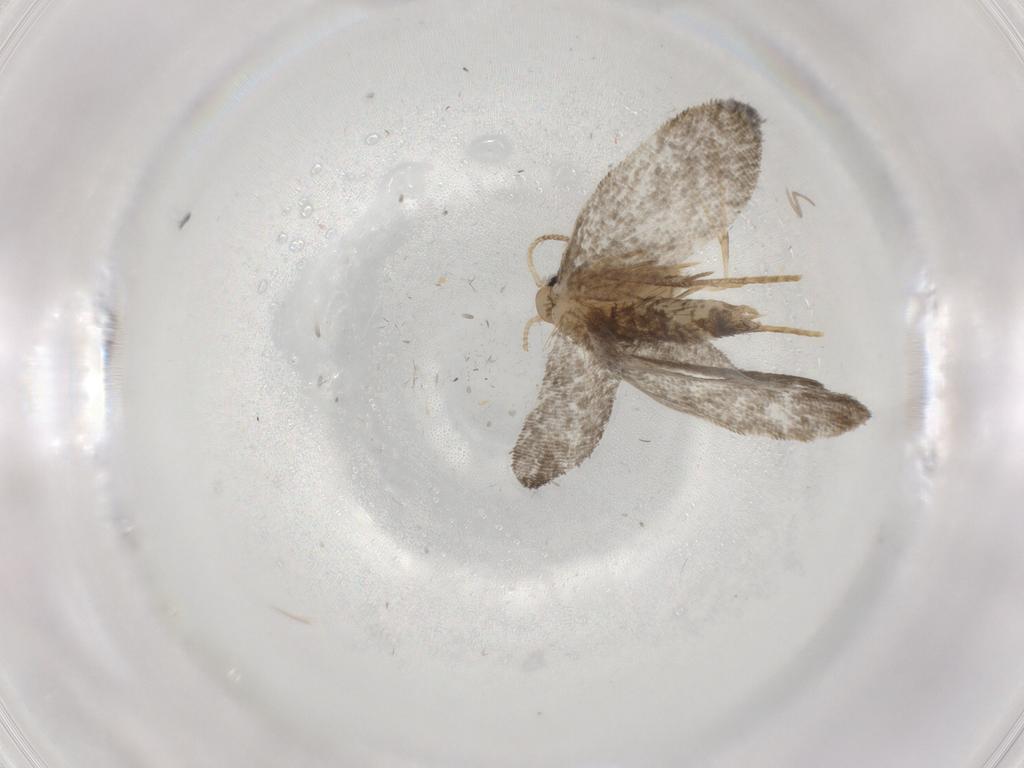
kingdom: Animalia
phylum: Arthropoda
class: Insecta
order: Lepidoptera
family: Psychidae
